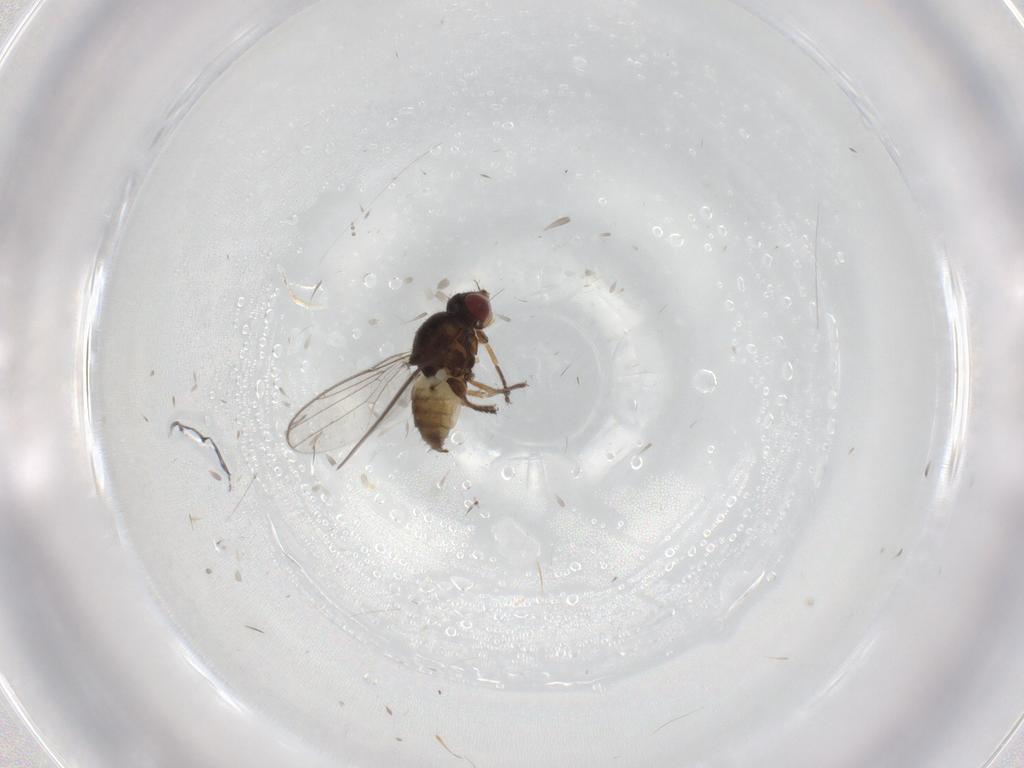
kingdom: Animalia
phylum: Arthropoda
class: Insecta
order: Diptera
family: Chloropidae
